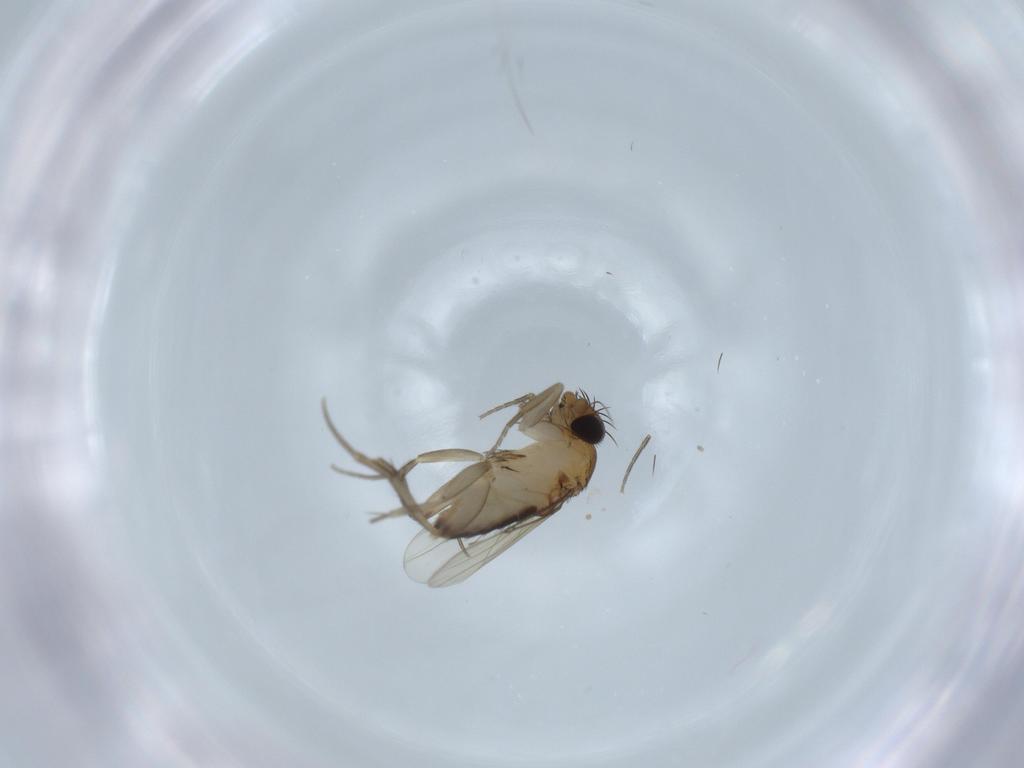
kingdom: Animalia
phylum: Arthropoda
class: Insecta
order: Diptera
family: Phoridae
